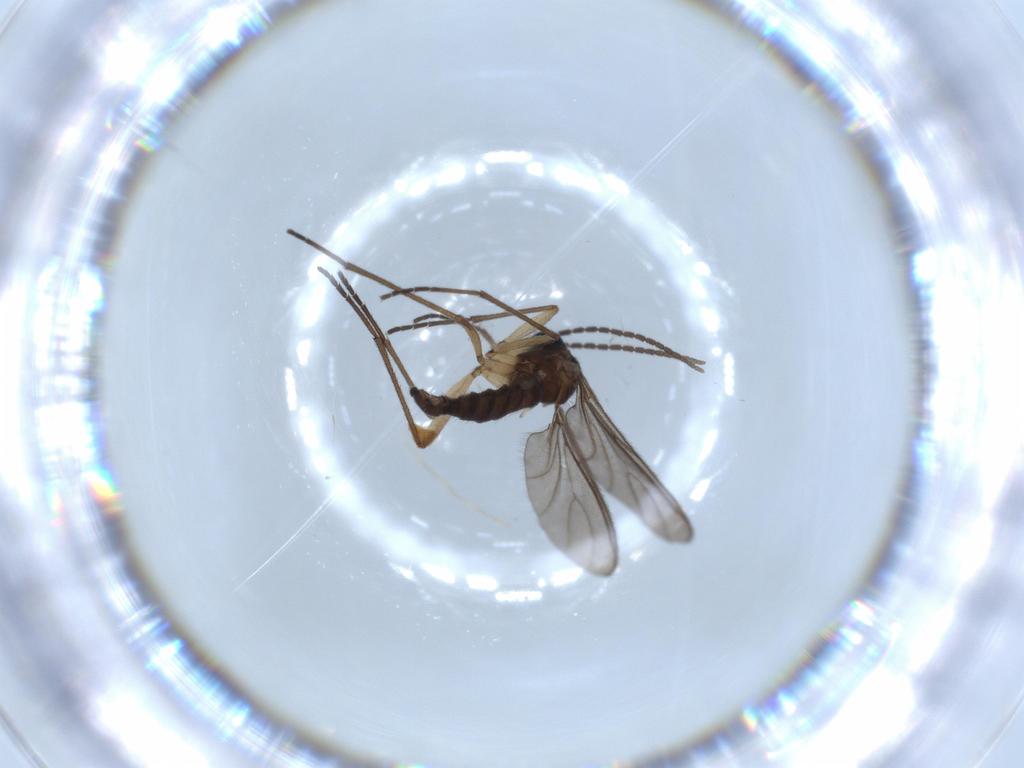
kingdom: Animalia
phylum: Arthropoda
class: Insecta
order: Diptera
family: Sciaridae
